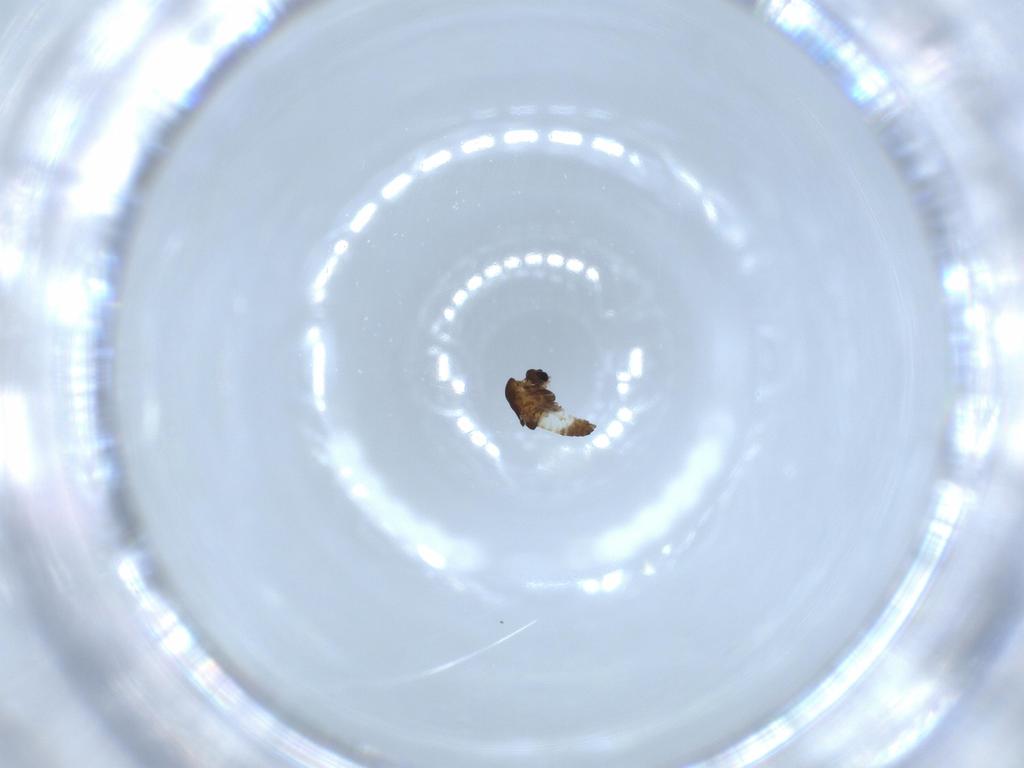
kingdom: Animalia
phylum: Arthropoda
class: Insecta
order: Diptera
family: Chironomidae
